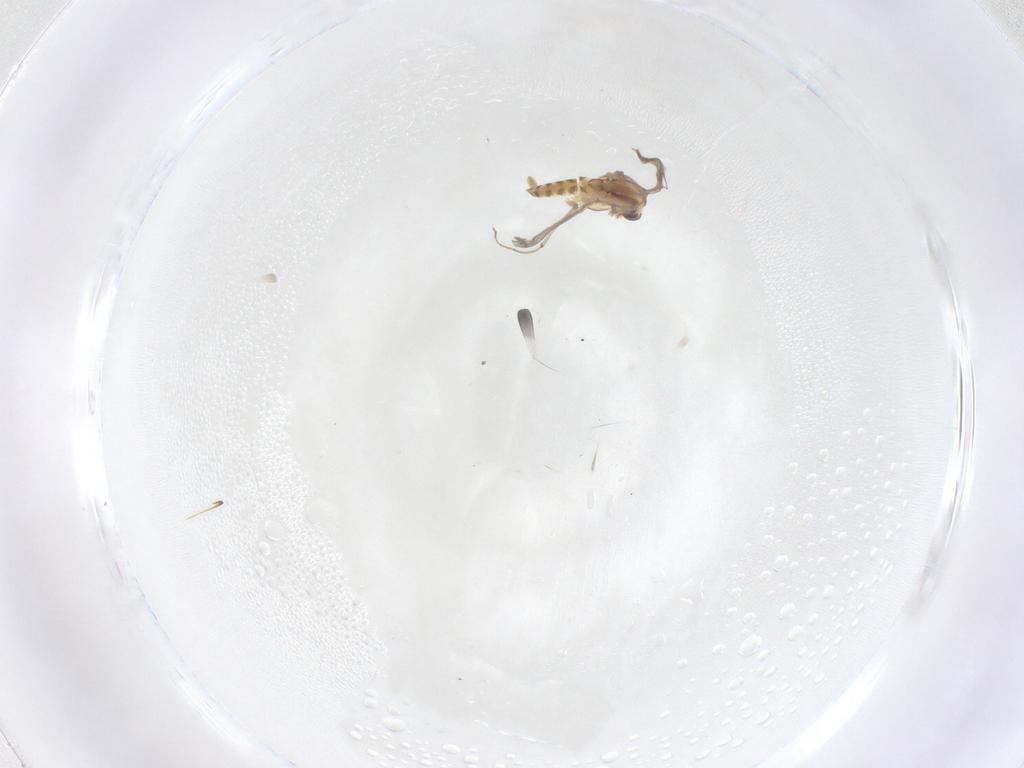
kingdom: Animalia
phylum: Arthropoda
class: Insecta
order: Diptera
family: Chironomidae
